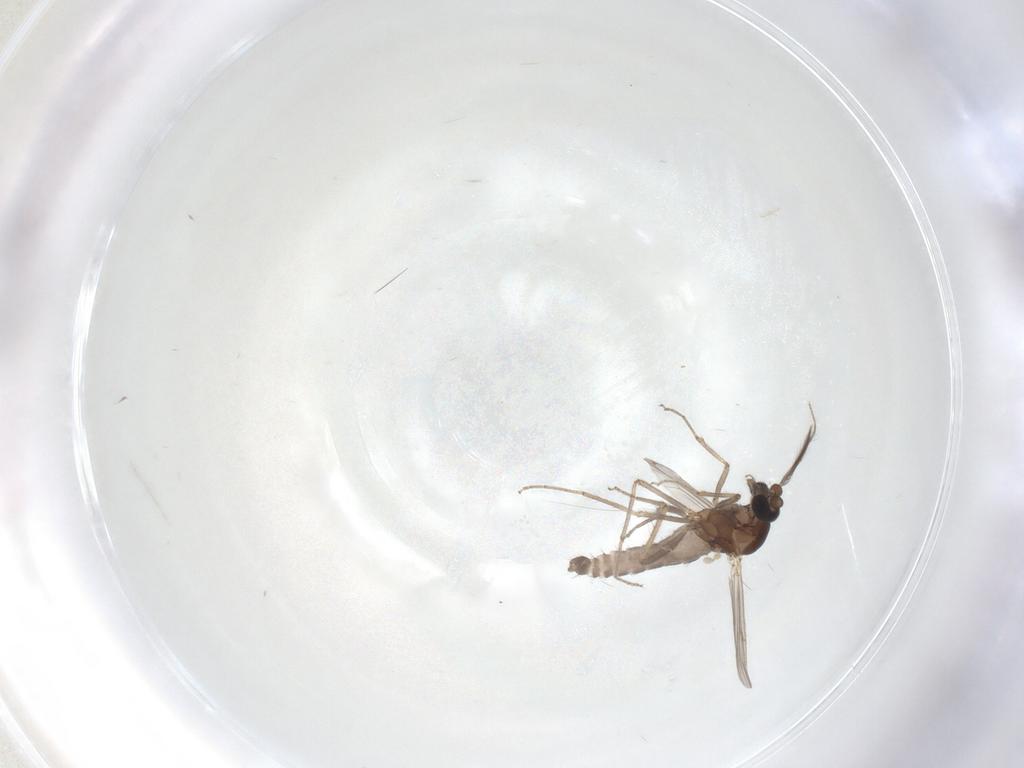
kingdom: Animalia
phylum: Arthropoda
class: Insecta
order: Diptera
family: Ceratopogonidae
